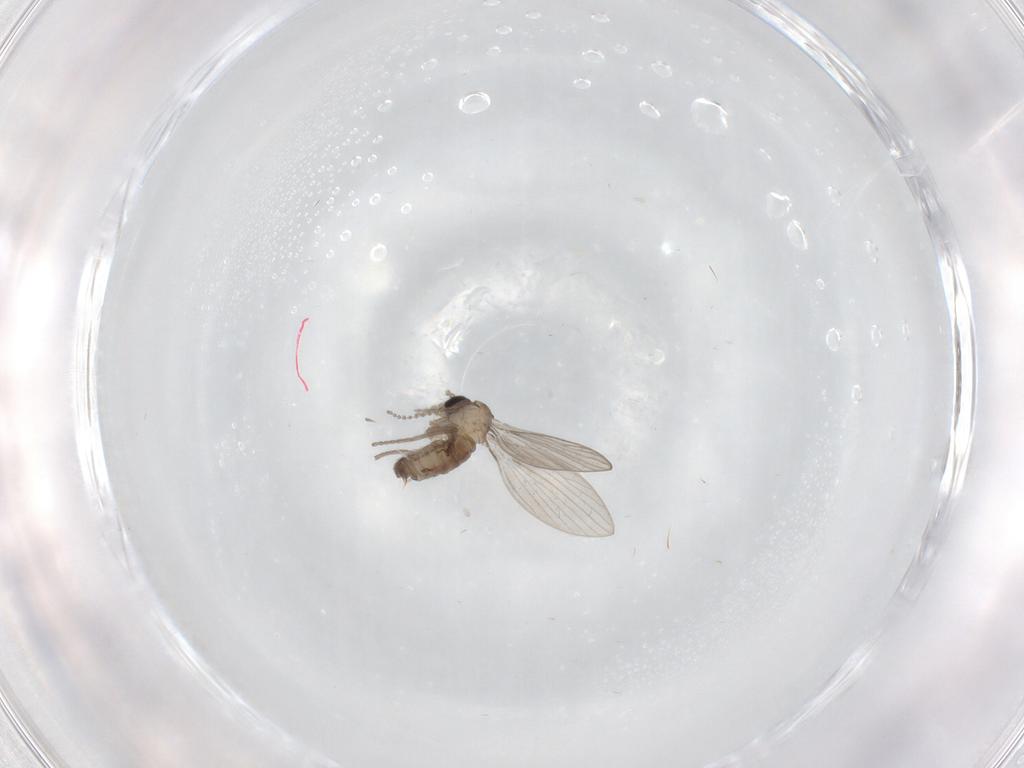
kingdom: Animalia
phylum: Arthropoda
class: Insecta
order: Diptera
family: Psychodidae
